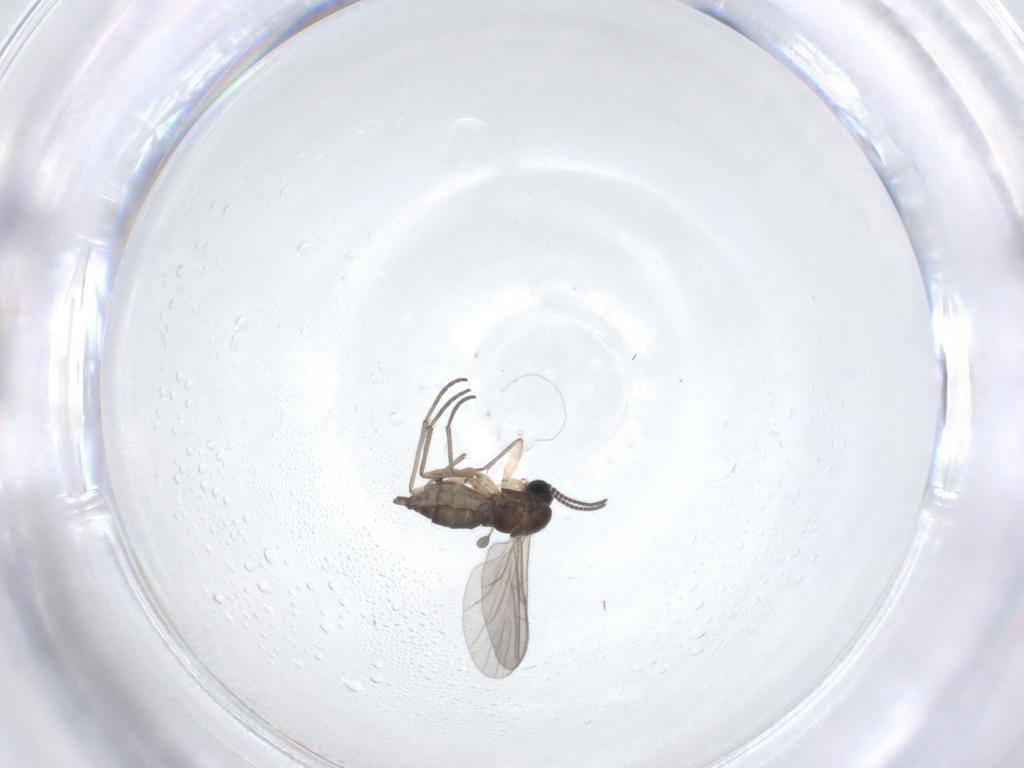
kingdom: Animalia
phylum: Arthropoda
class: Insecta
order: Diptera
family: Sciaridae
